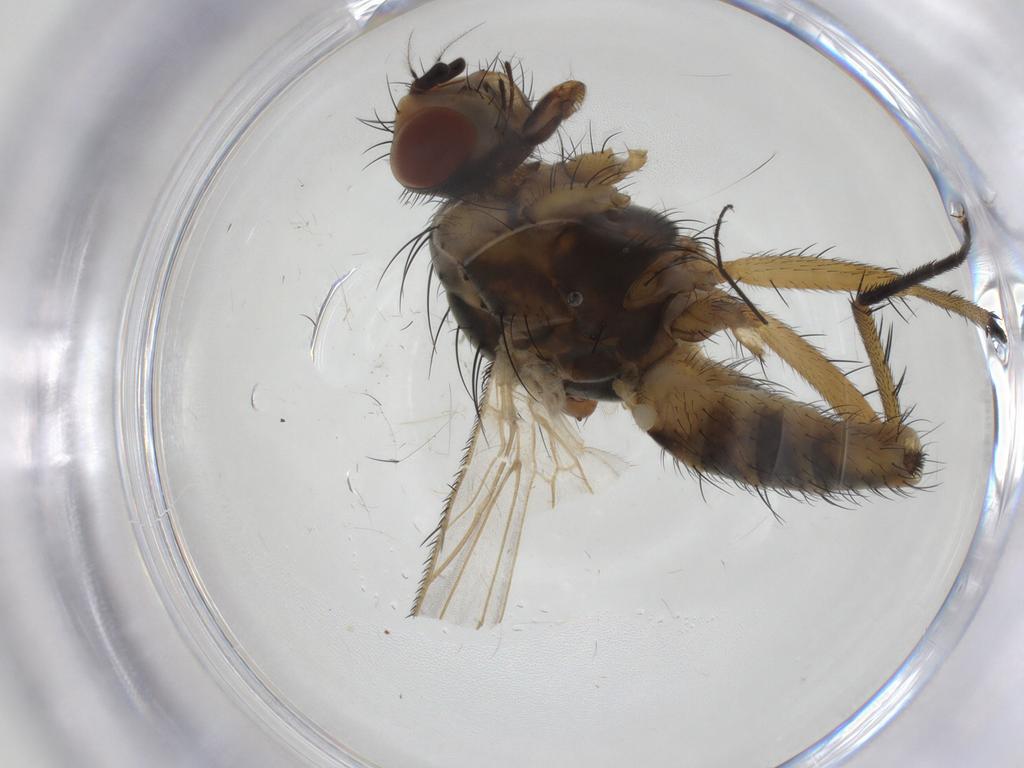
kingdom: Animalia
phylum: Arthropoda
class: Insecta
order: Diptera
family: Anthomyiidae
